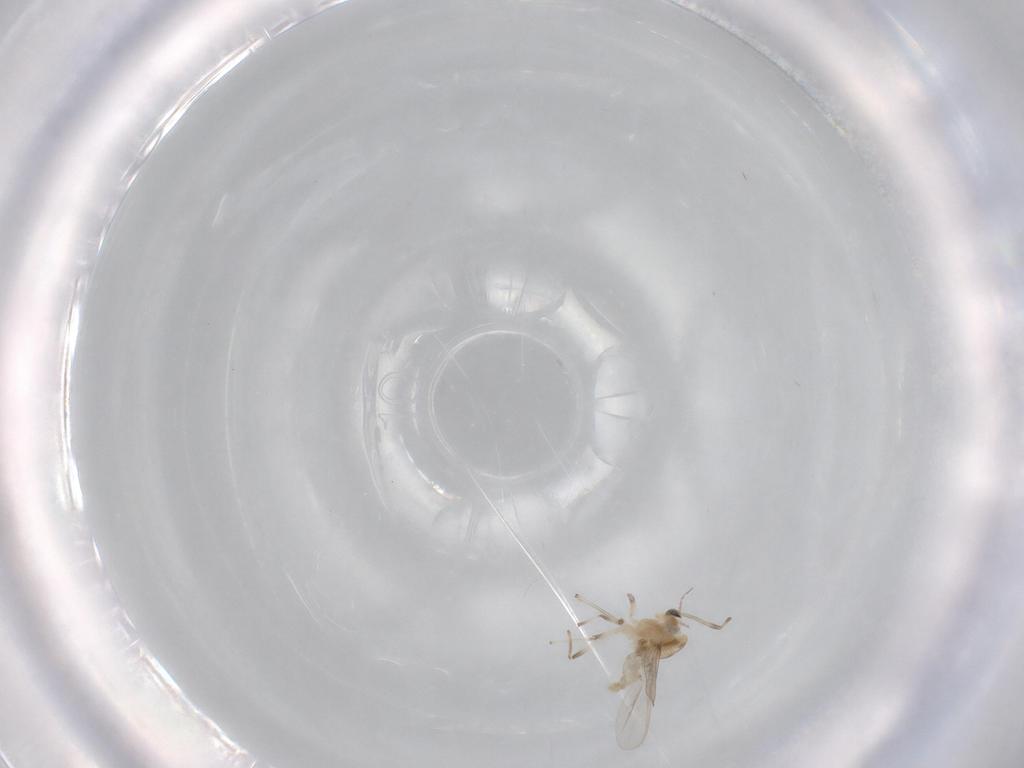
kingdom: Animalia
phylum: Arthropoda
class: Insecta
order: Diptera
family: Chironomidae
